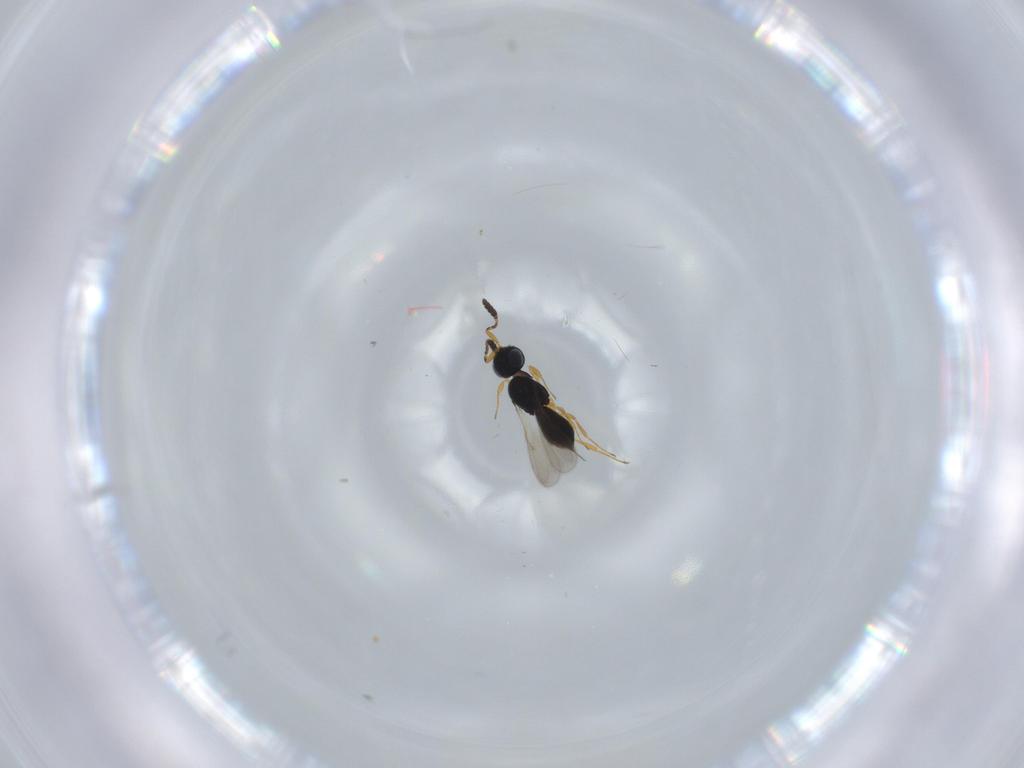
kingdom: Animalia
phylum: Arthropoda
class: Insecta
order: Hymenoptera
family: Scelionidae
